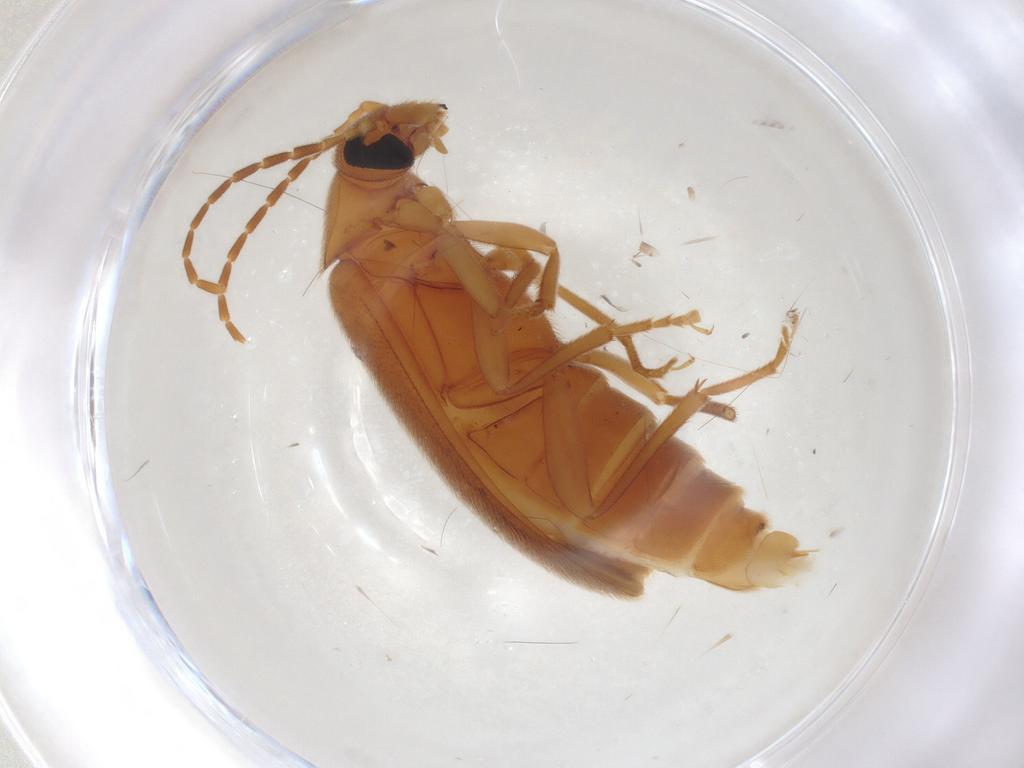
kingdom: Animalia
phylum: Arthropoda
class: Insecta
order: Coleoptera
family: Scraptiidae
